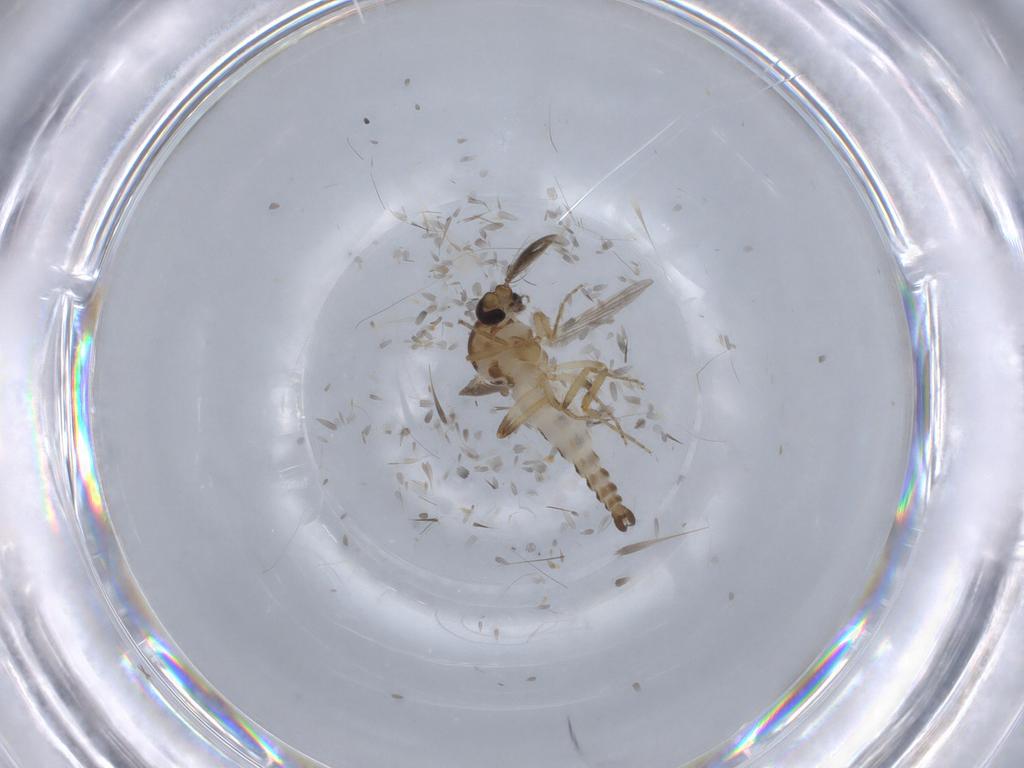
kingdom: Animalia
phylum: Arthropoda
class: Insecta
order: Diptera
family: Ceratopogonidae
